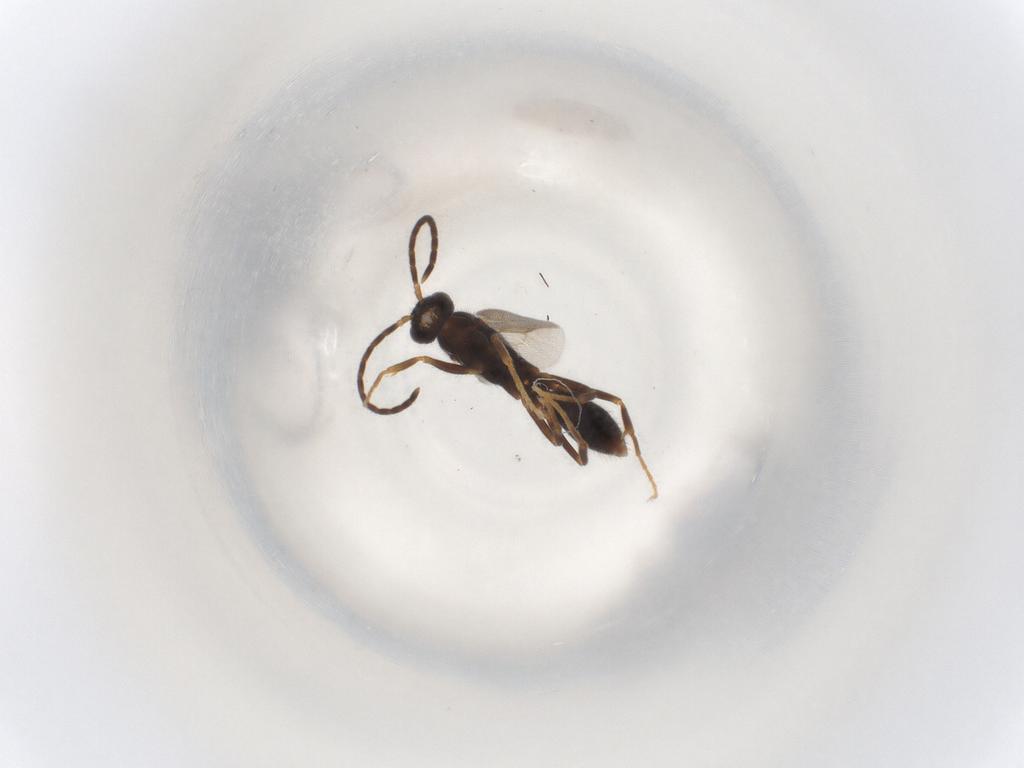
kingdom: Animalia
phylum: Arthropoda
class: Insecta
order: Hymenoptera
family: Formicidae
